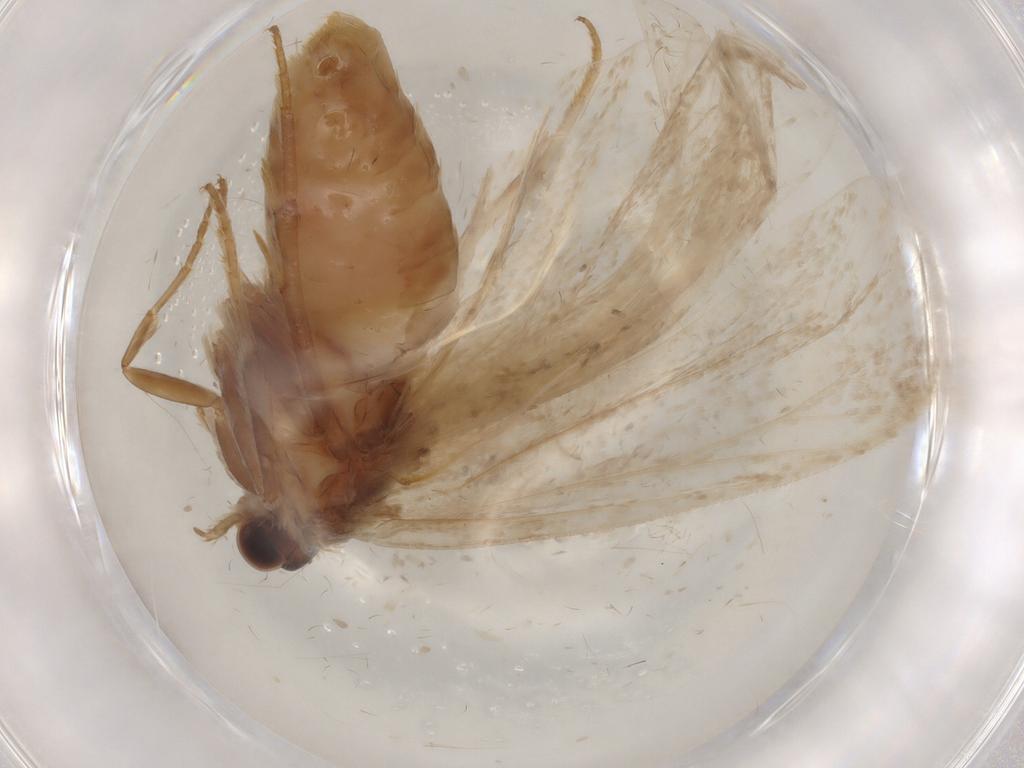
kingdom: Animalia
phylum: Arthropoda
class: Insecta
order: Lepidoptera
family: Tortricidae
